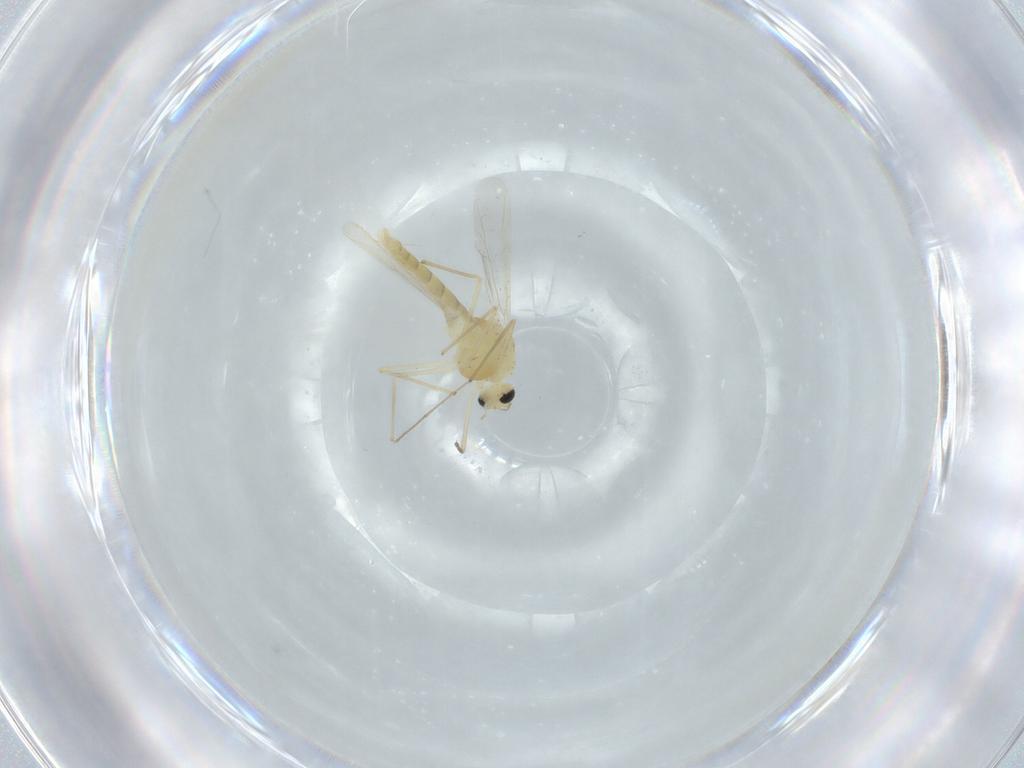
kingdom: Animalia
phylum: Arthropoda
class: Insecta
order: Diptera
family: Chironomidae
